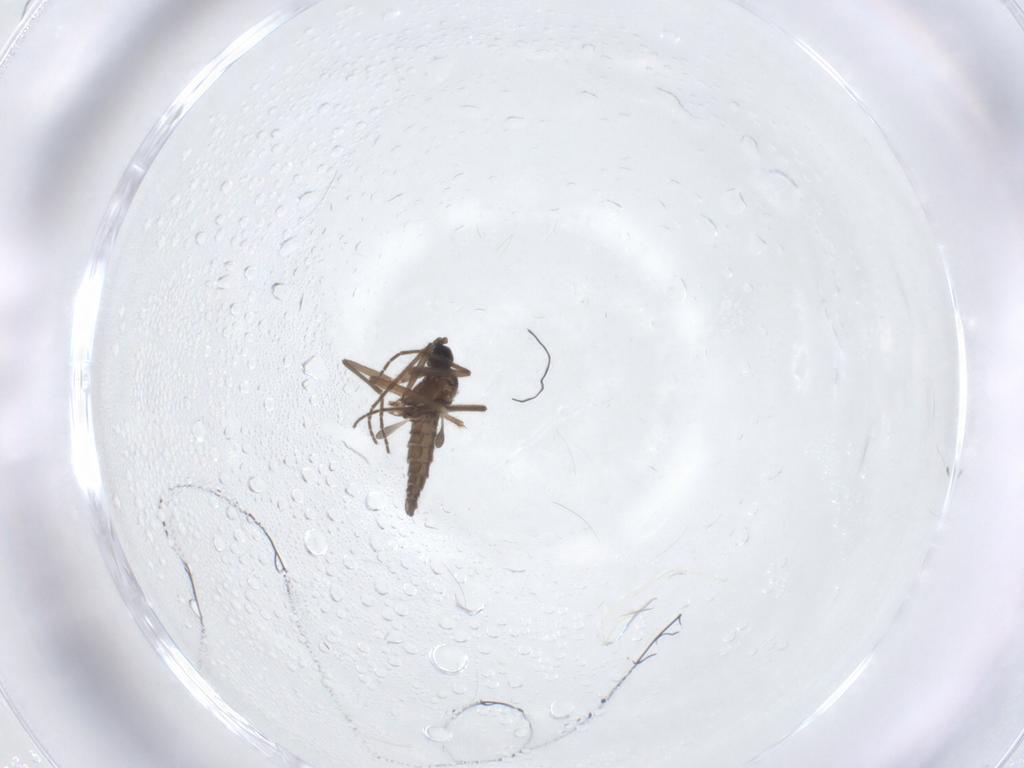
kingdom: Animalia
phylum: Arthropoda
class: Insecta
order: Diptera
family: Sciaridae
